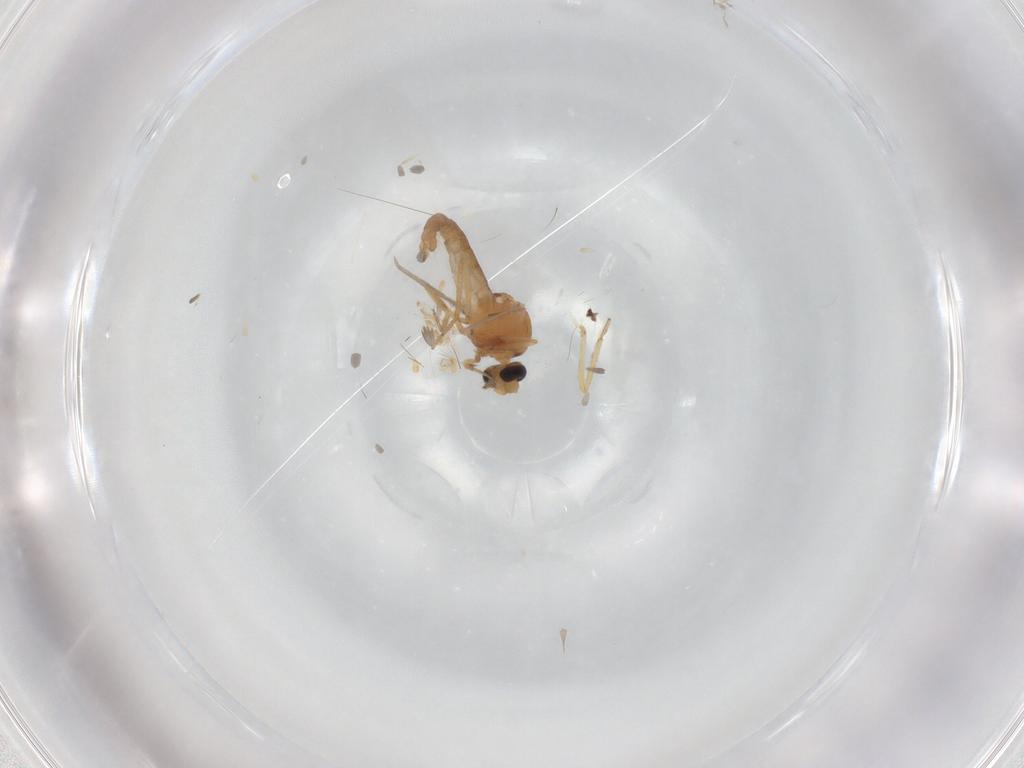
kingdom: Animalia
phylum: Arthropoda
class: Insecta
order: Diptera
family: Ceratopogonidae
